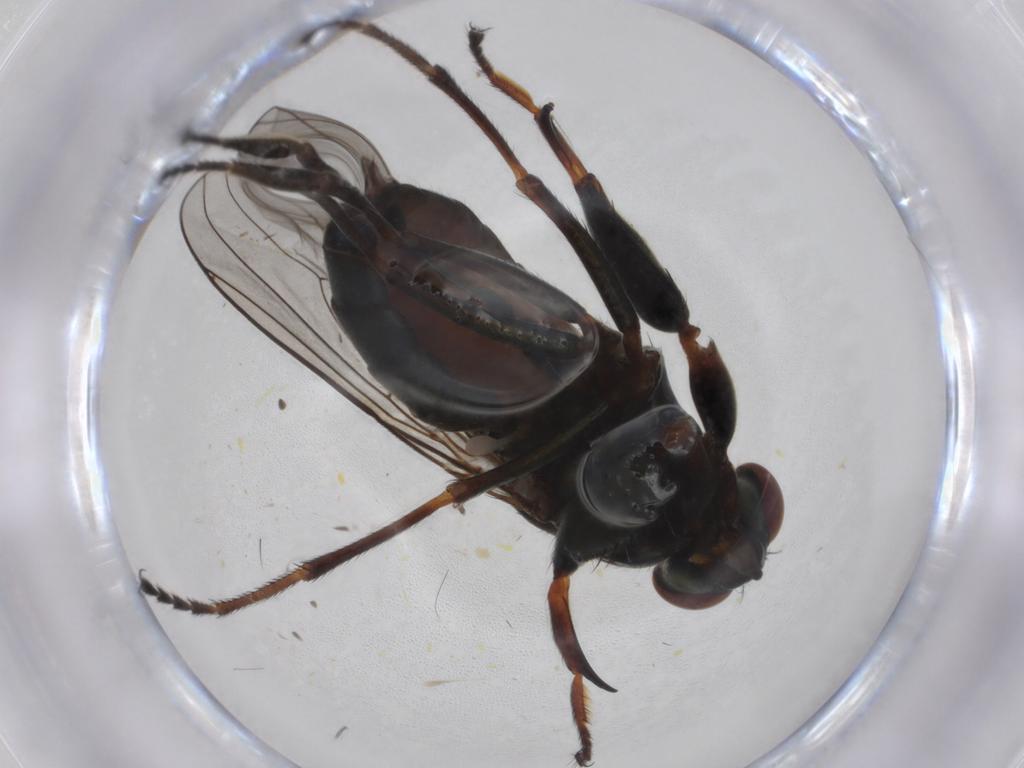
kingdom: Animalia
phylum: Arthropoda
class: Insecta
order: Diptera
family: Ephydridae
